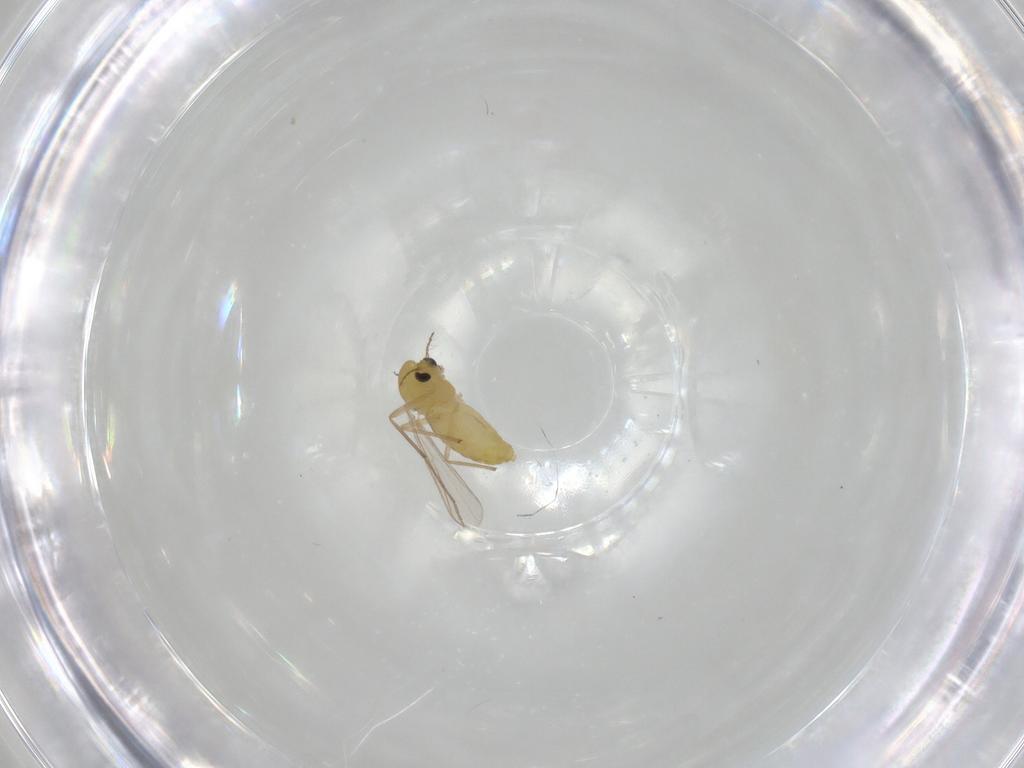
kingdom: Animalia
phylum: Arthropoda
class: Insecta
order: Diptera
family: Chironomidae
